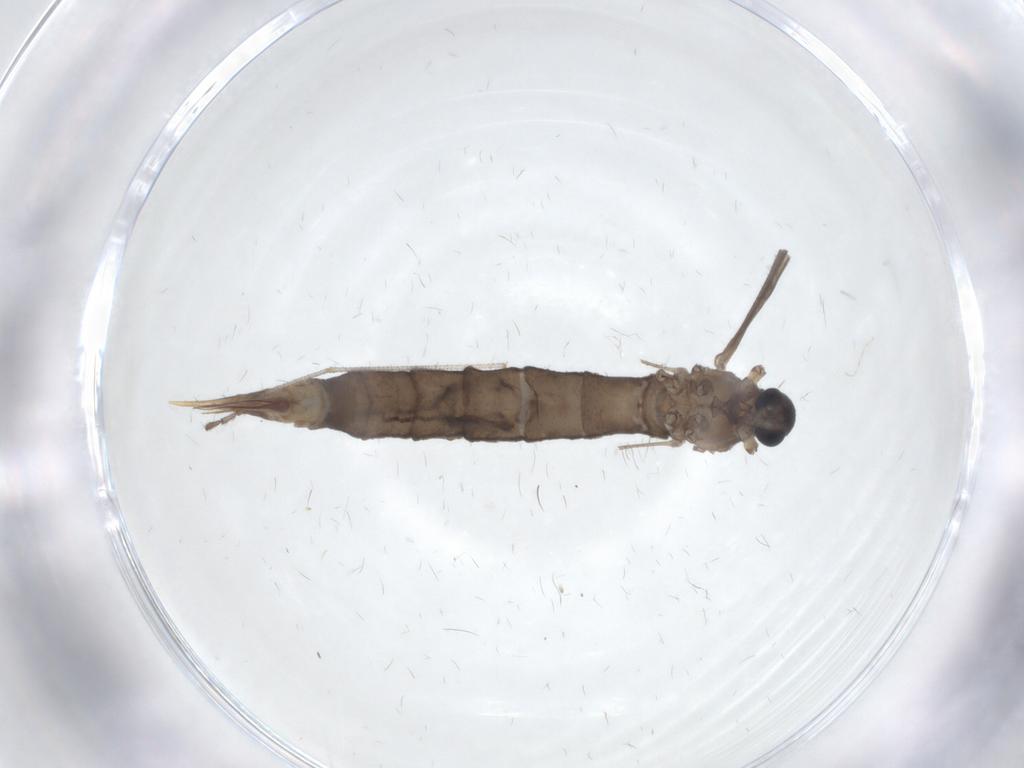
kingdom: Animalia
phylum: Arthropoda
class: Insecta
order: Diptera
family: Limoniidae
